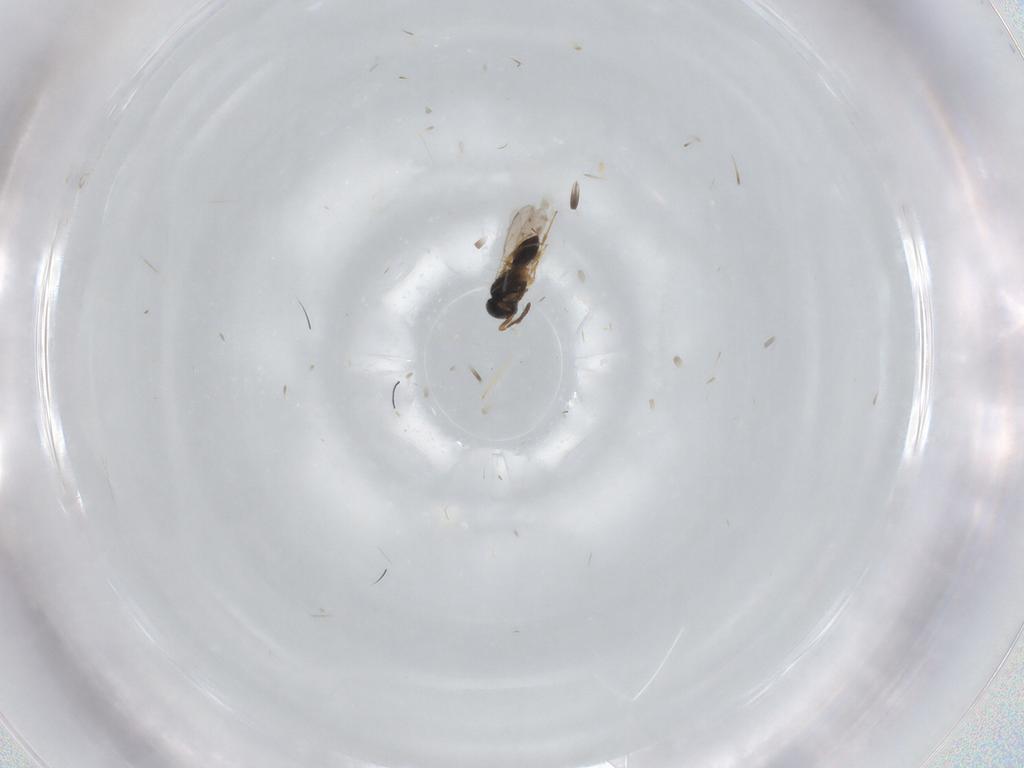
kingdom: Animalia
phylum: Arthropoda
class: Insecta
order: Hymenoptera
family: Scelionidae
